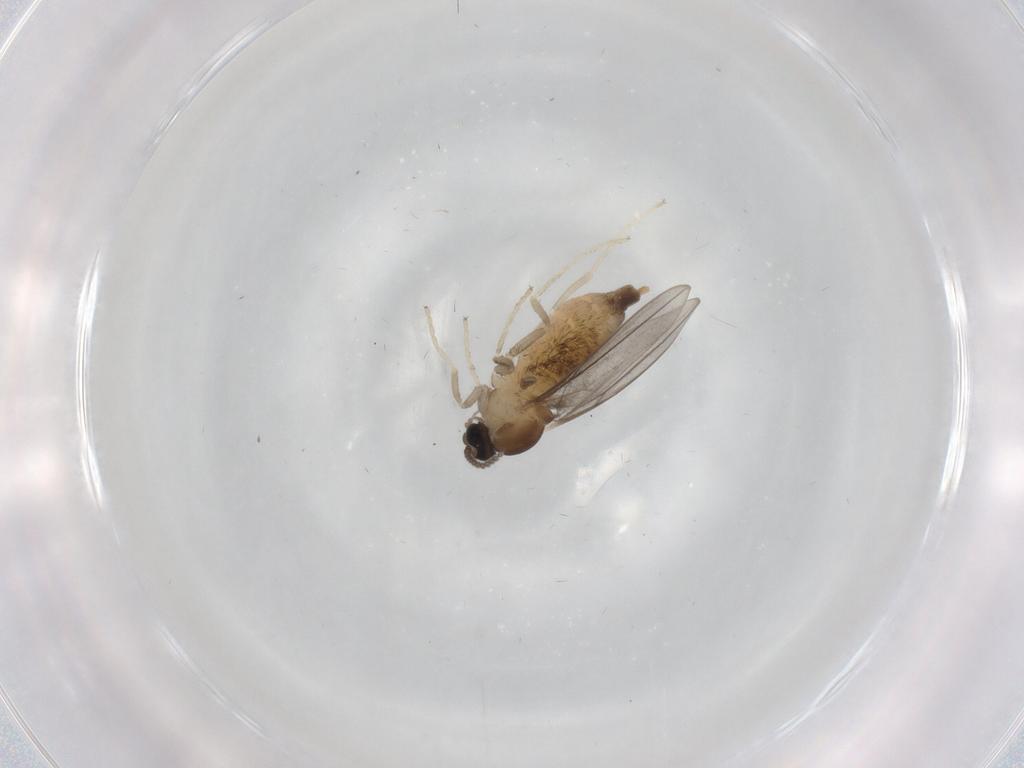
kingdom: Animalia
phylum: Arthropoda
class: Insecta
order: Diptera
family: Cecidomyiidae
